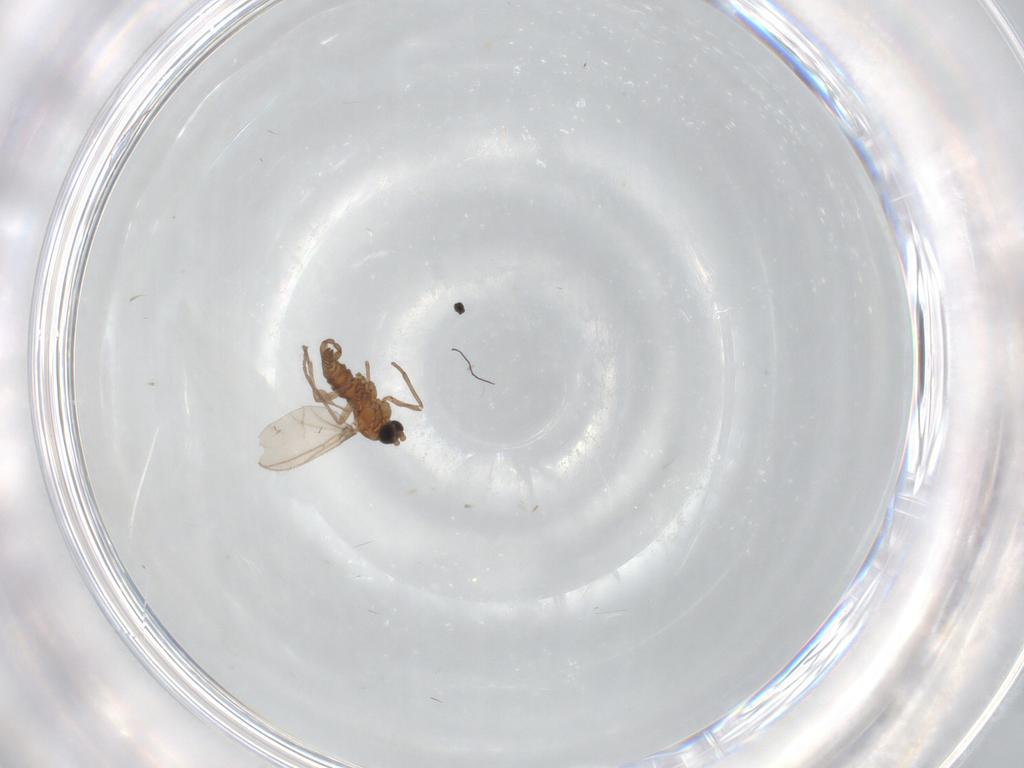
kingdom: Animalia
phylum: Arthropoda
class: Insecta
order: Diptera
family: Sciaridae
